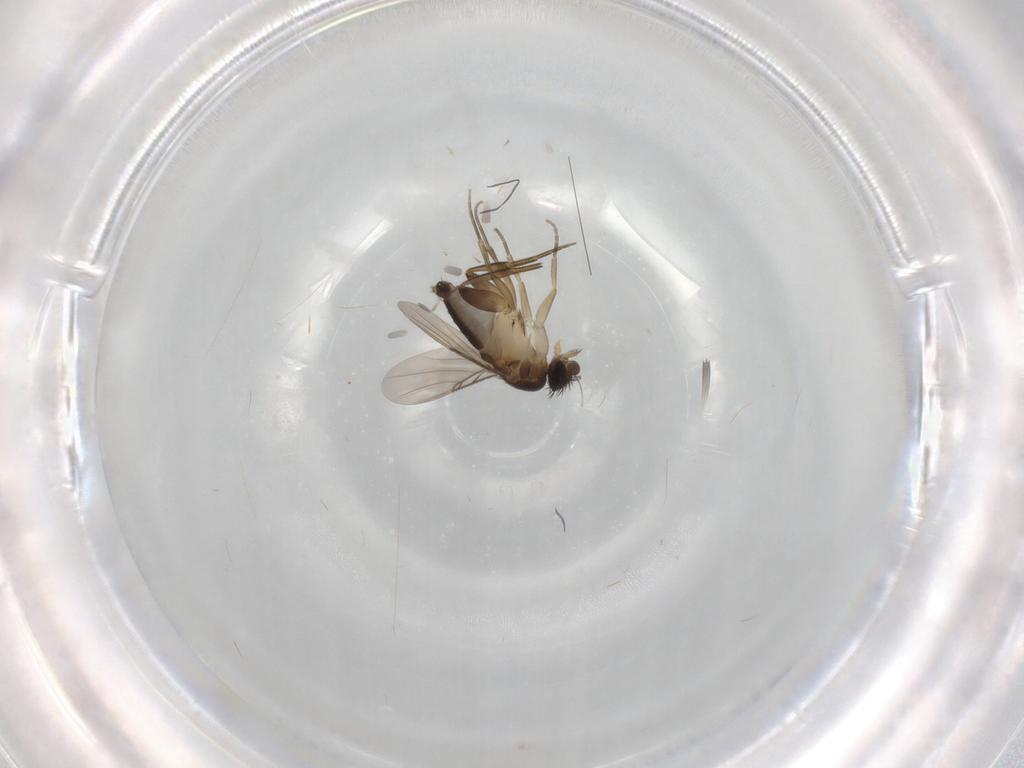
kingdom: Animalia
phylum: Arthropoda
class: Insecta
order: Diptera
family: Phoridae
